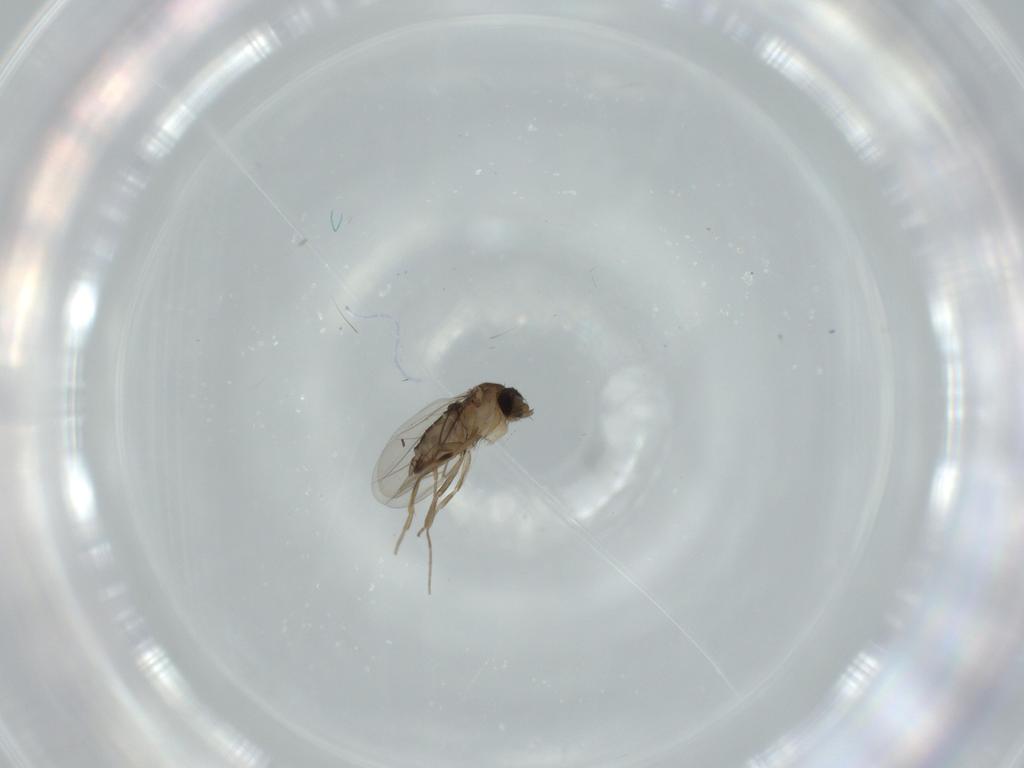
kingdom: Animalia
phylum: Arthropoda
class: Insecta
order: Diptera
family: Phoridae
